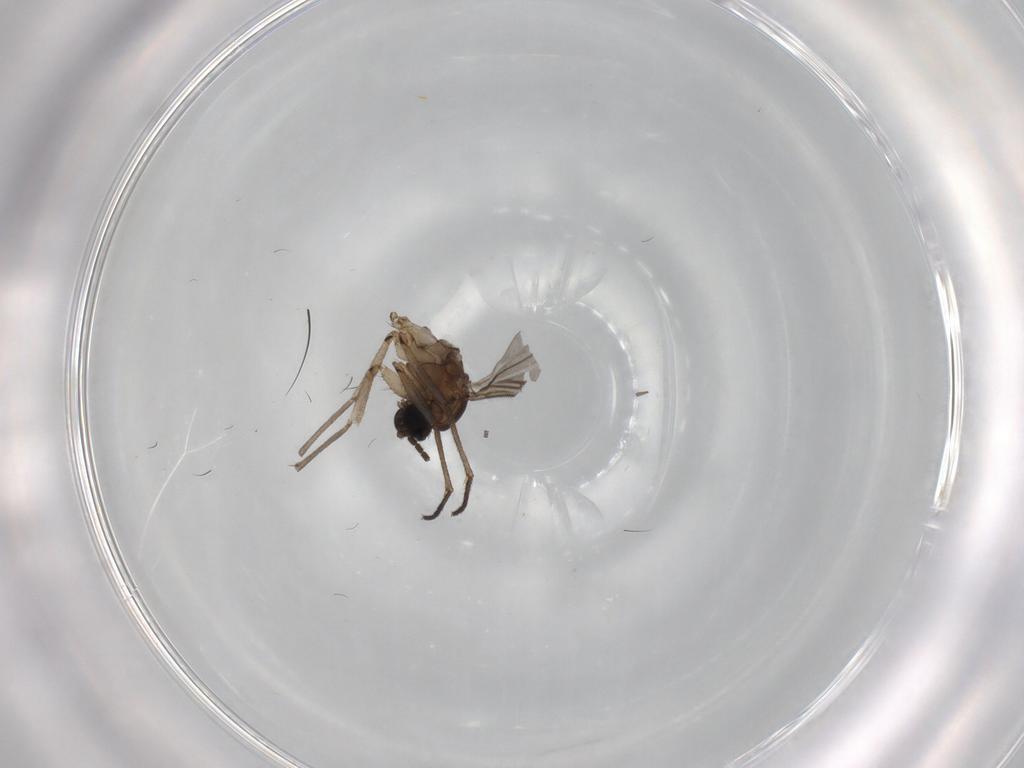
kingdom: Animalia
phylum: Arthropoda
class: Insecta
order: Diptera
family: Sciaridae
